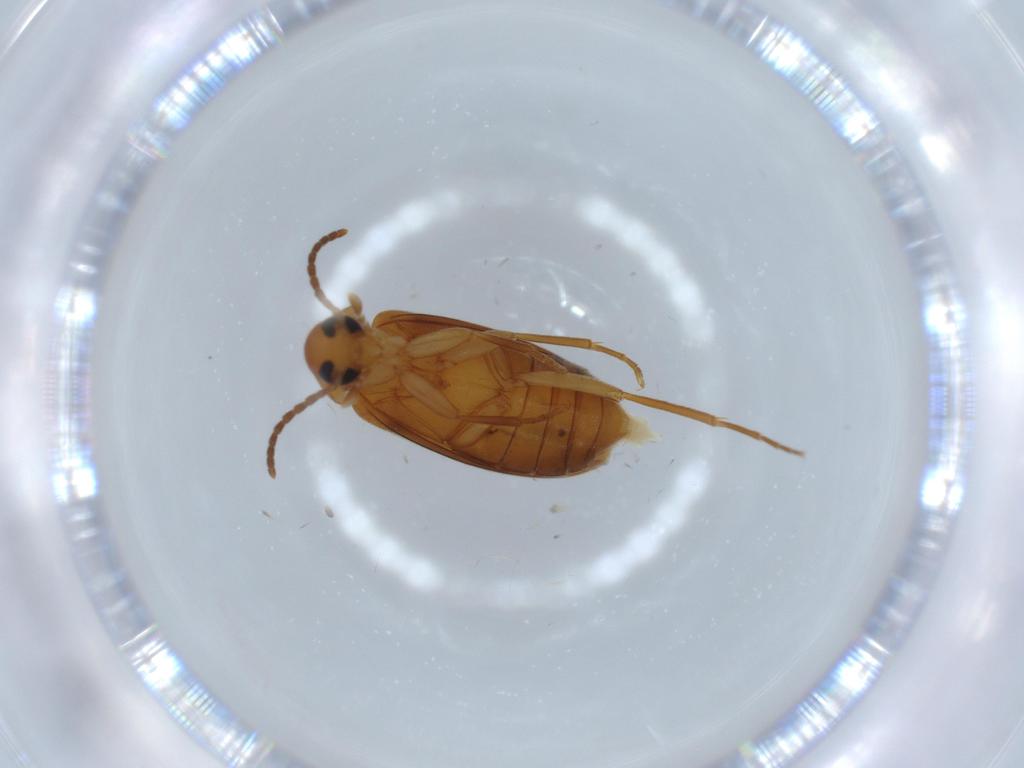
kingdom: Animalia
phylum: Arthropoda
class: Insecta
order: Coleoptera
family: Scraptiidae
